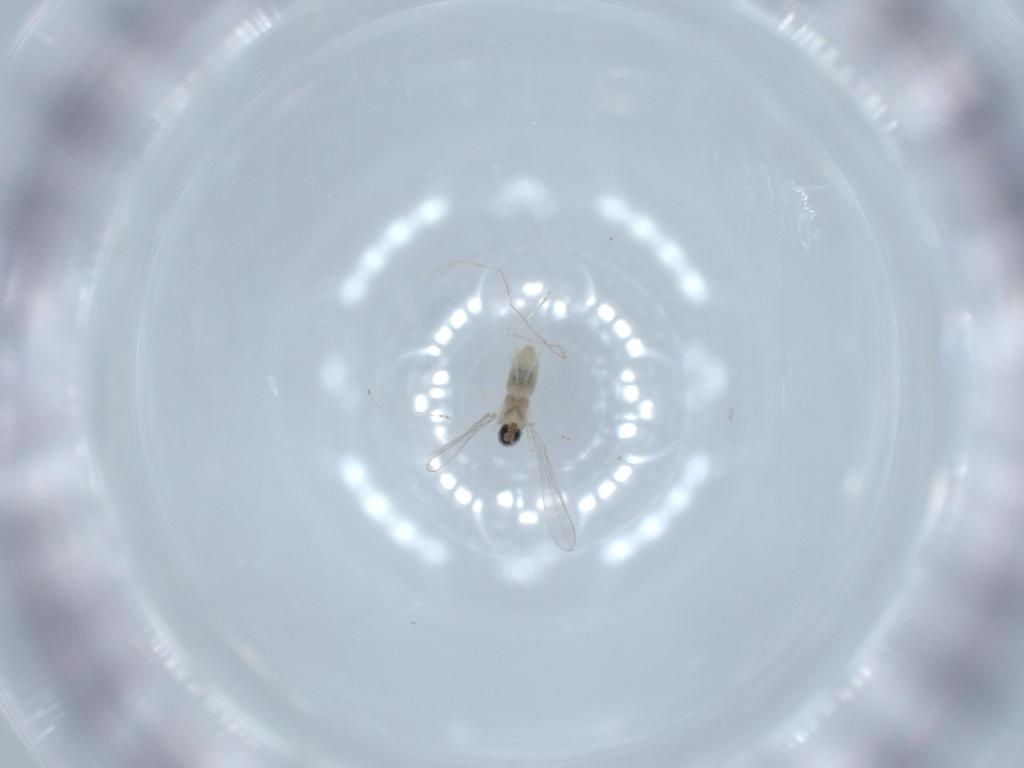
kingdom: Animalia
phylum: Arthropoda
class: Insecta
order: Diptera
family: Cecidomyiidae
